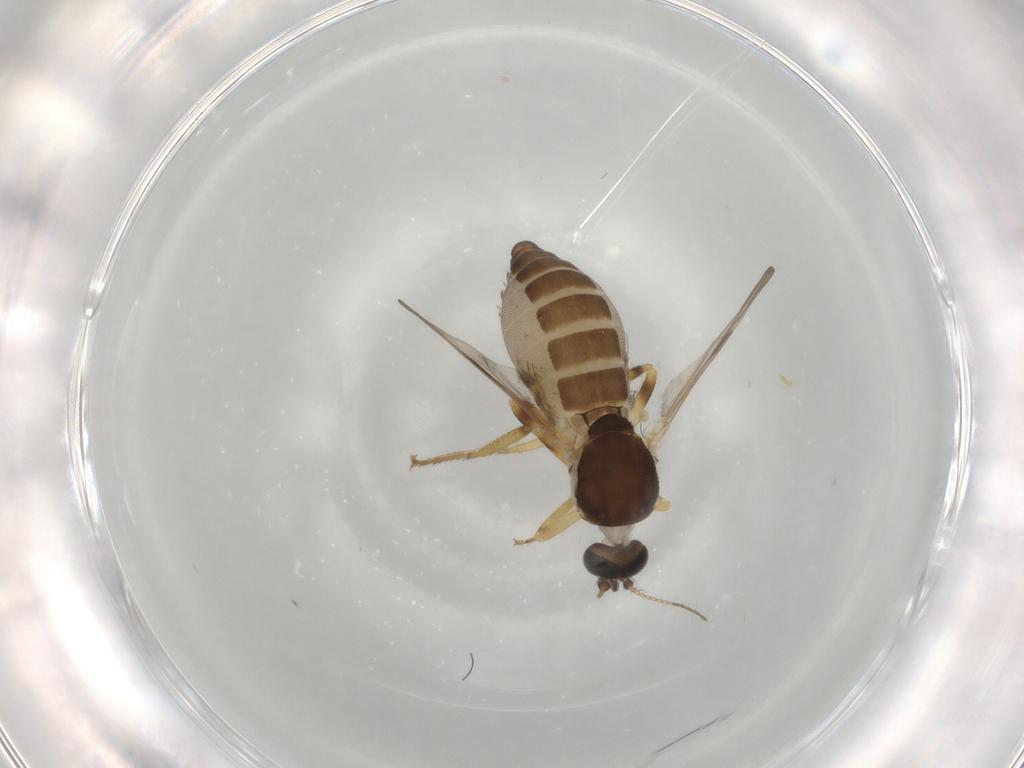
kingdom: Animalia
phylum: Arthropoda
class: Insecta
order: Diptera
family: Ceratopogonidae
